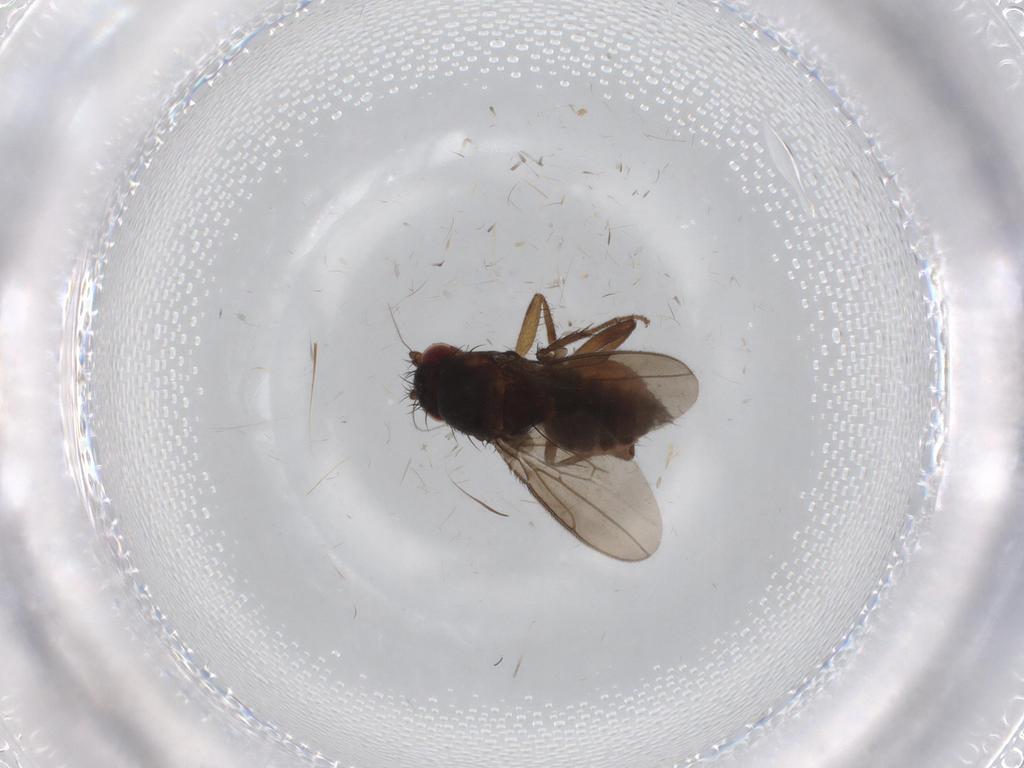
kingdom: Animalia
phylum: Arthropoda
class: Insecta
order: Diptera
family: Sphaeroceridae
